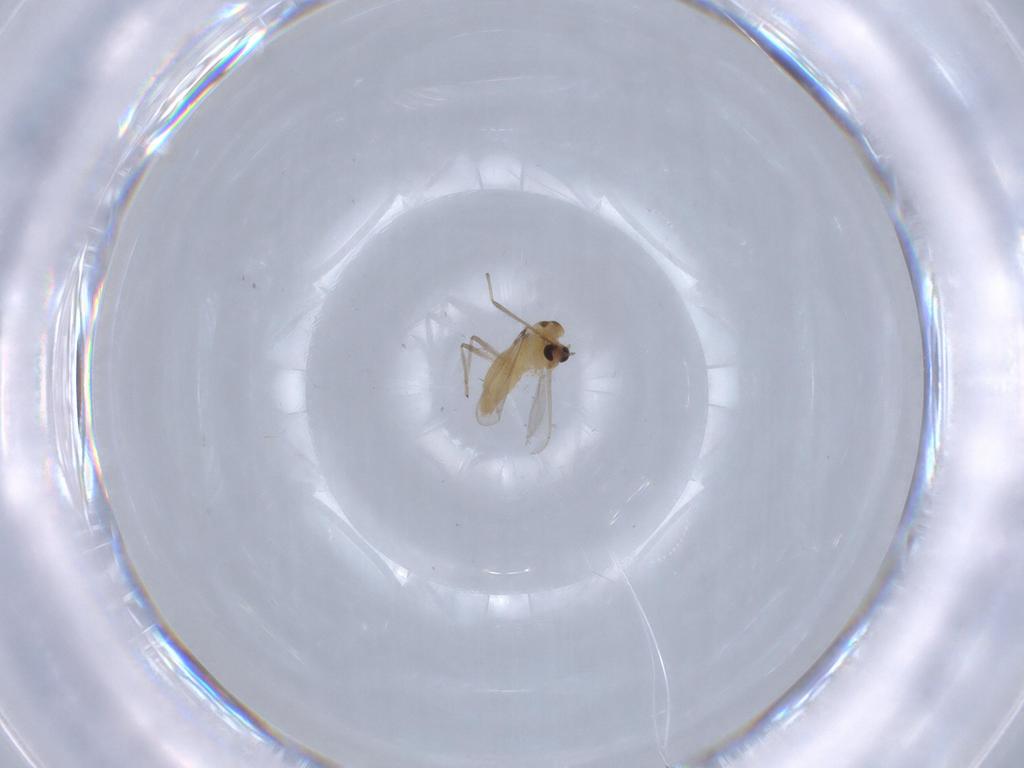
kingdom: Animalia
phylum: Arthropoda
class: Insecta
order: Diptera
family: Chironomidae
